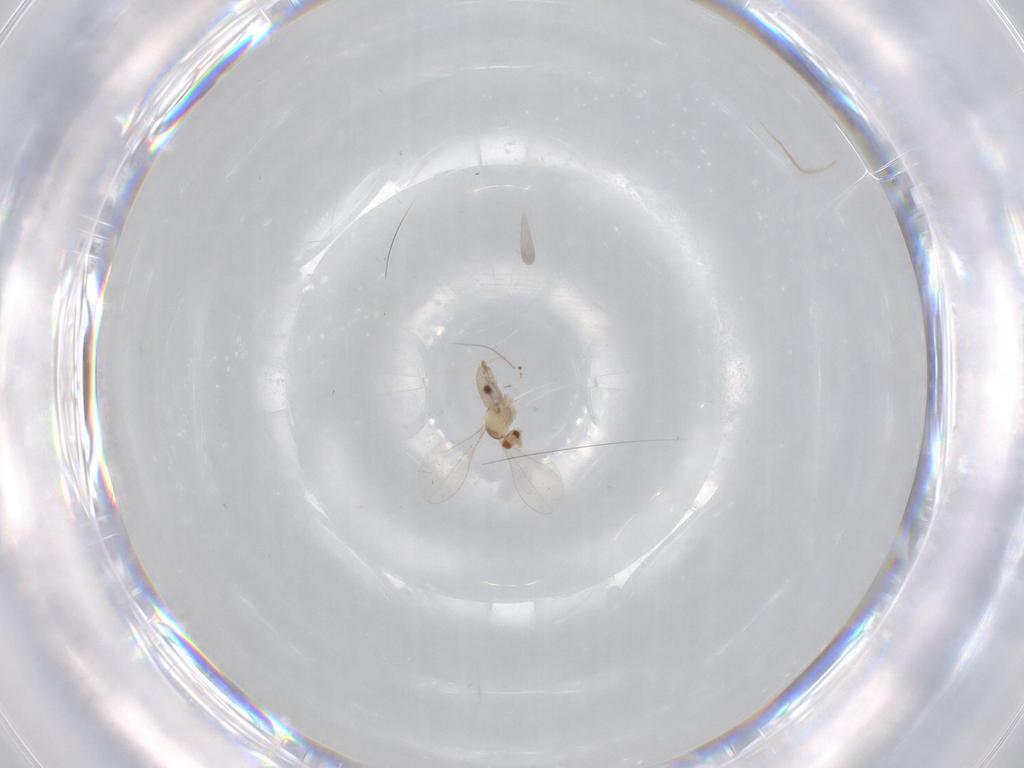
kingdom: Animalia
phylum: Arthropoda
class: Insecta
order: Diptera
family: Cecidomyiidae
